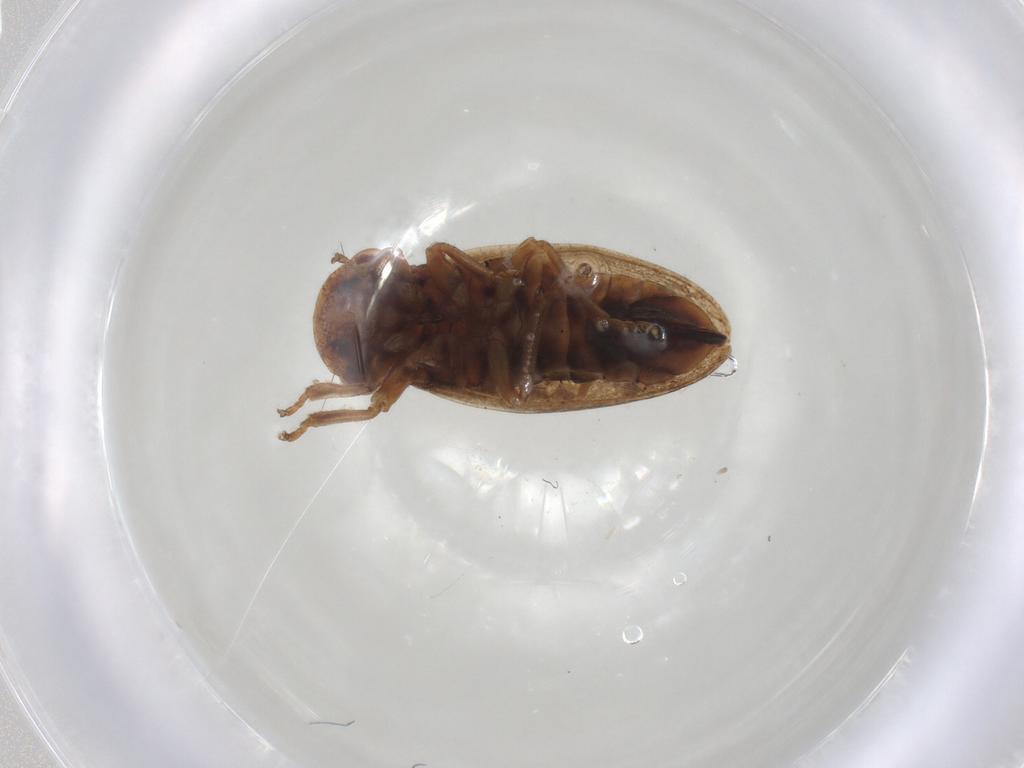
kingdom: Animalia
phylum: Arthropoda
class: Insecta
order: Hemiptera
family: Cicadellidae
